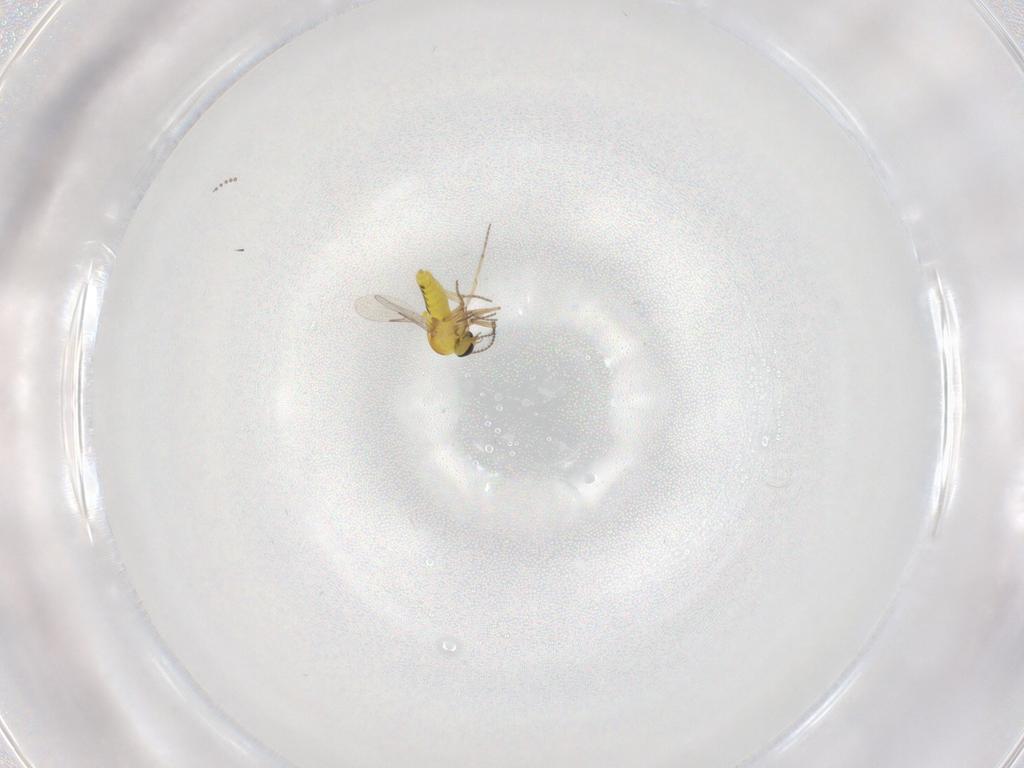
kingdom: Animalia
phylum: Arthropoda
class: Insecta
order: Diptera
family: Ceratopogonidae
